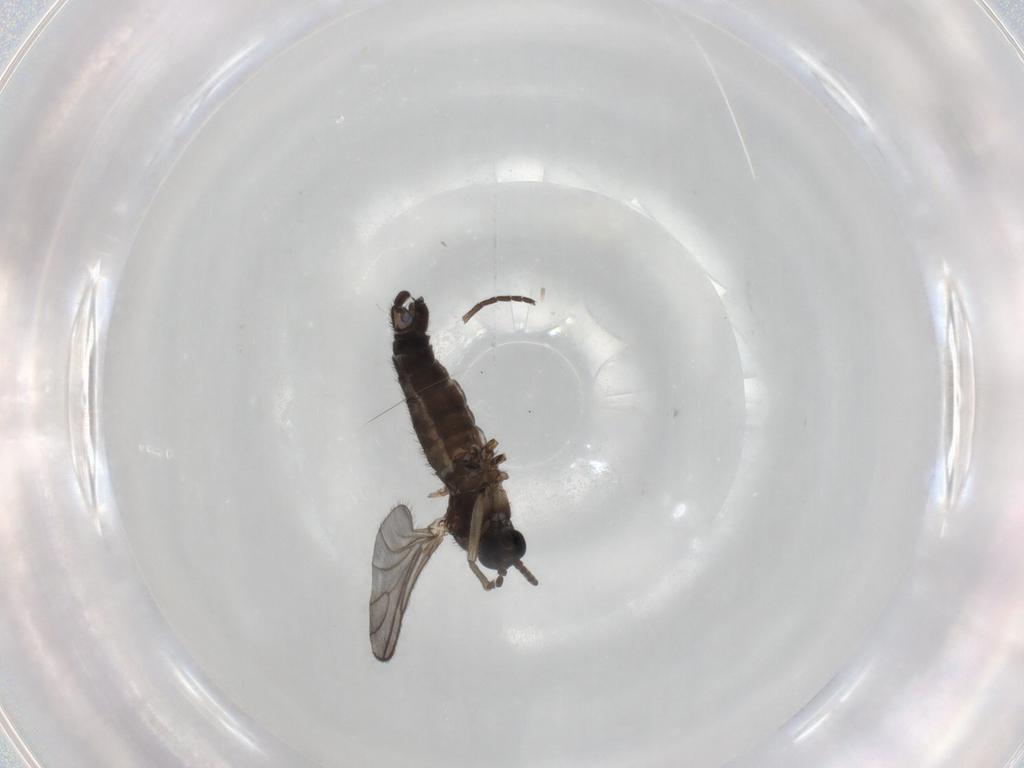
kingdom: Animalia
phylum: Arthropoda
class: Insecta
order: Diptera
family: Sciaridae
